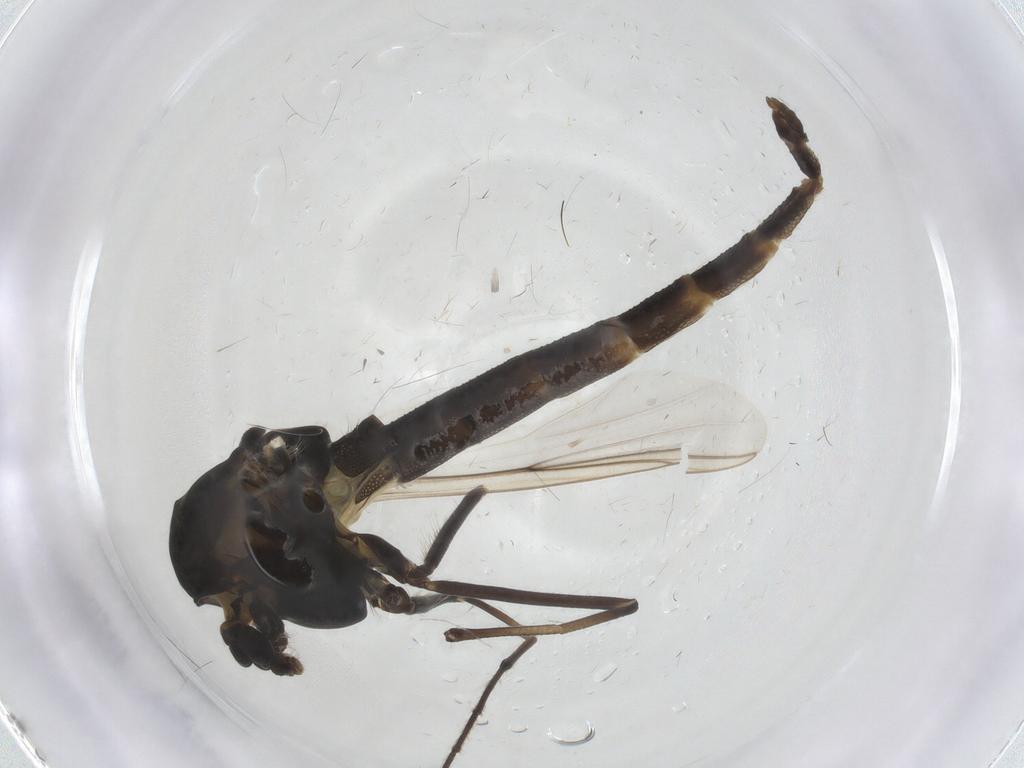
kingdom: Animalia
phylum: Arthropoda
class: Insecta
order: Diptera
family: Chironomidae
